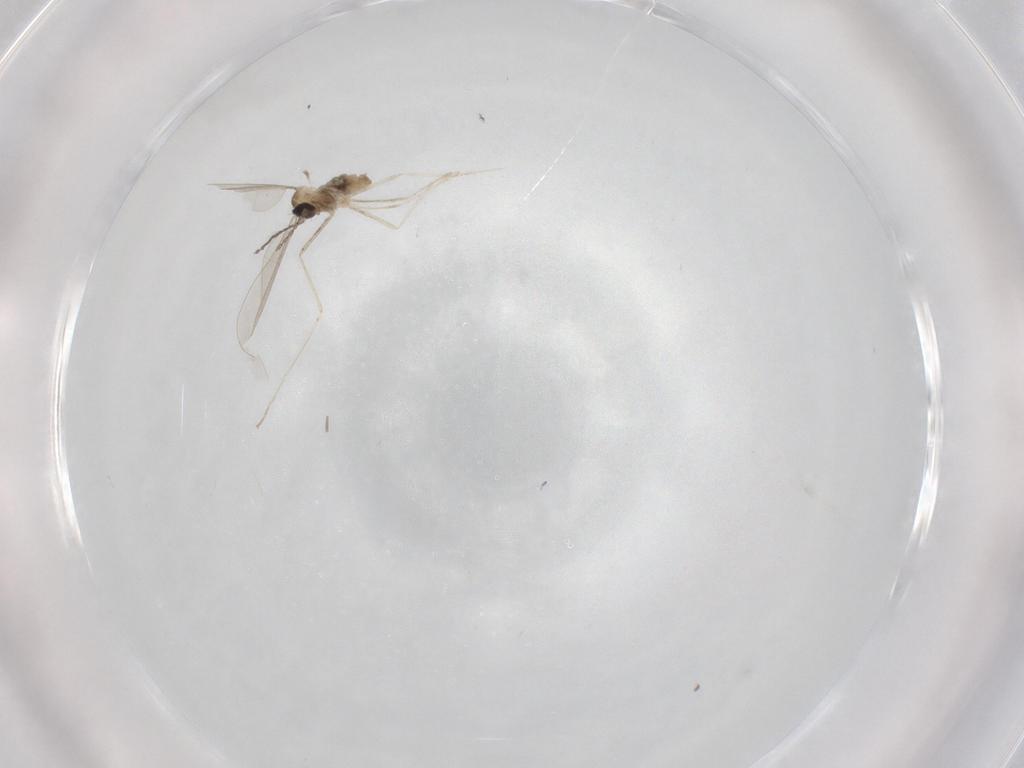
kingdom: Animalia
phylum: Arthropoda
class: Insecta
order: Diptera
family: Cecidomyiidae
